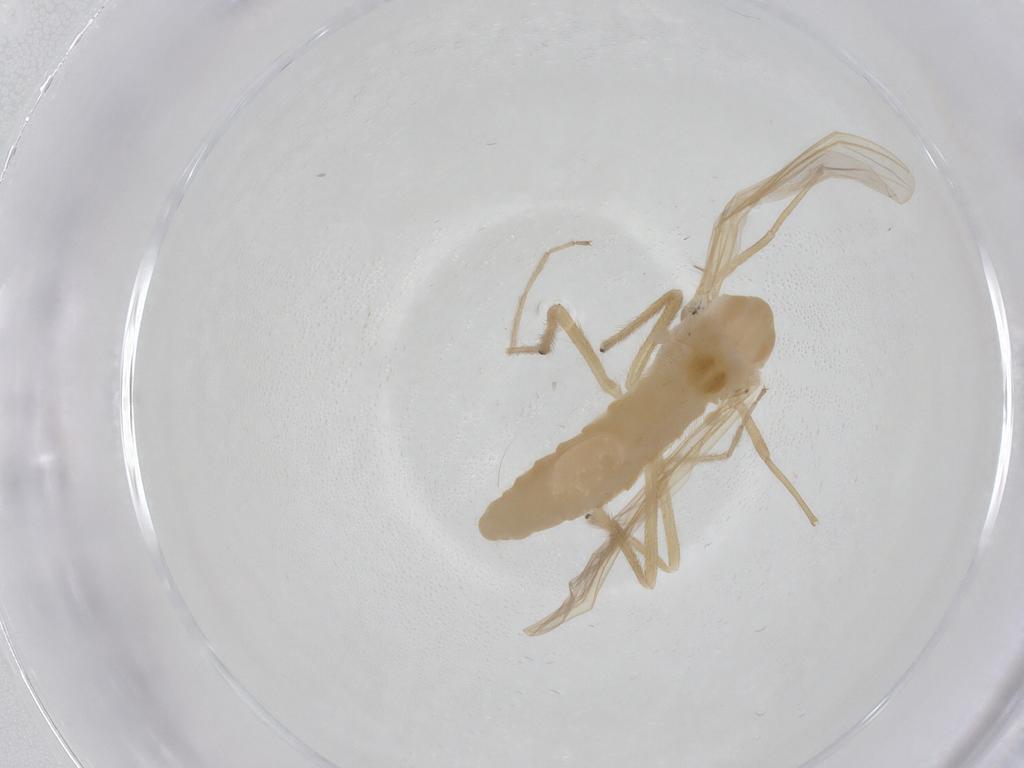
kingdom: Animalia
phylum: Arthropoda
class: Insecta
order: Diptera
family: Chironomidae
